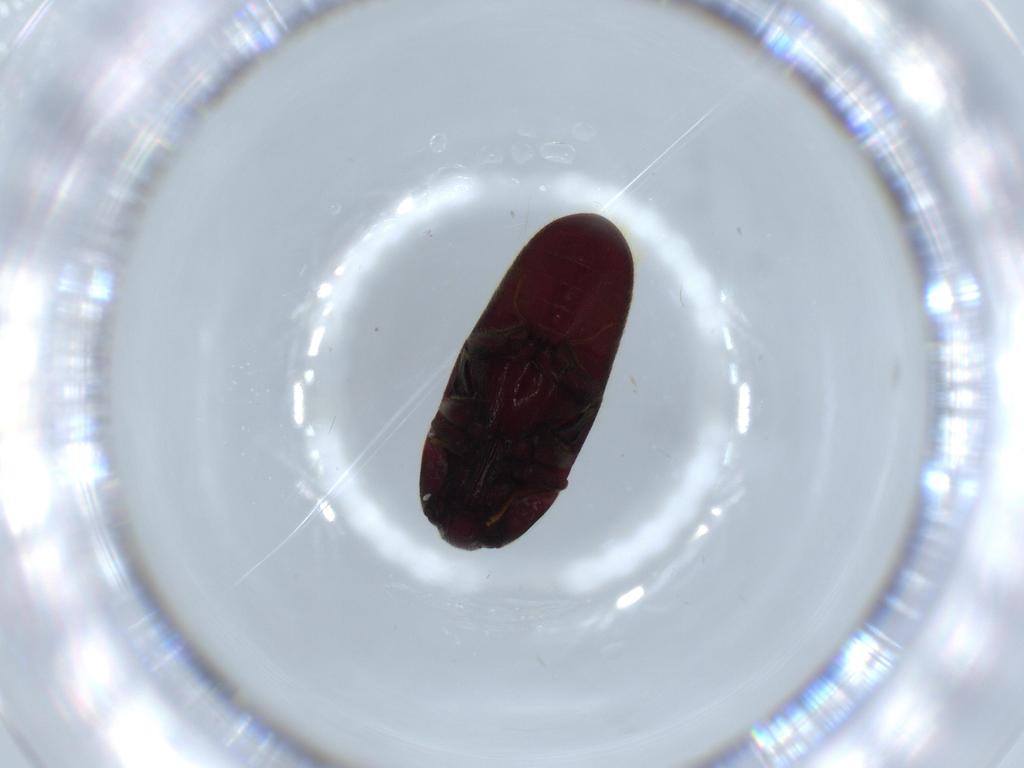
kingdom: Animalia
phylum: Arthropoda
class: Insecta
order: Coleoptera
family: Throscidae
